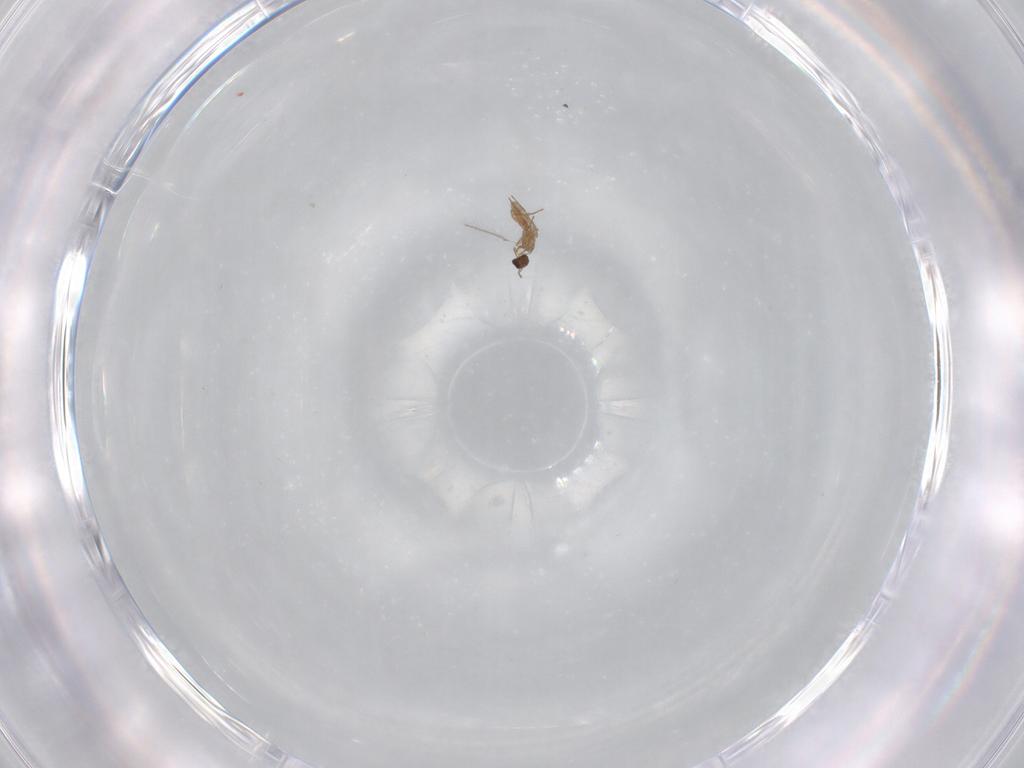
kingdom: Animalia
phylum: Arthropoda
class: Insecta
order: Hymenoptera
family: Mymaridae
